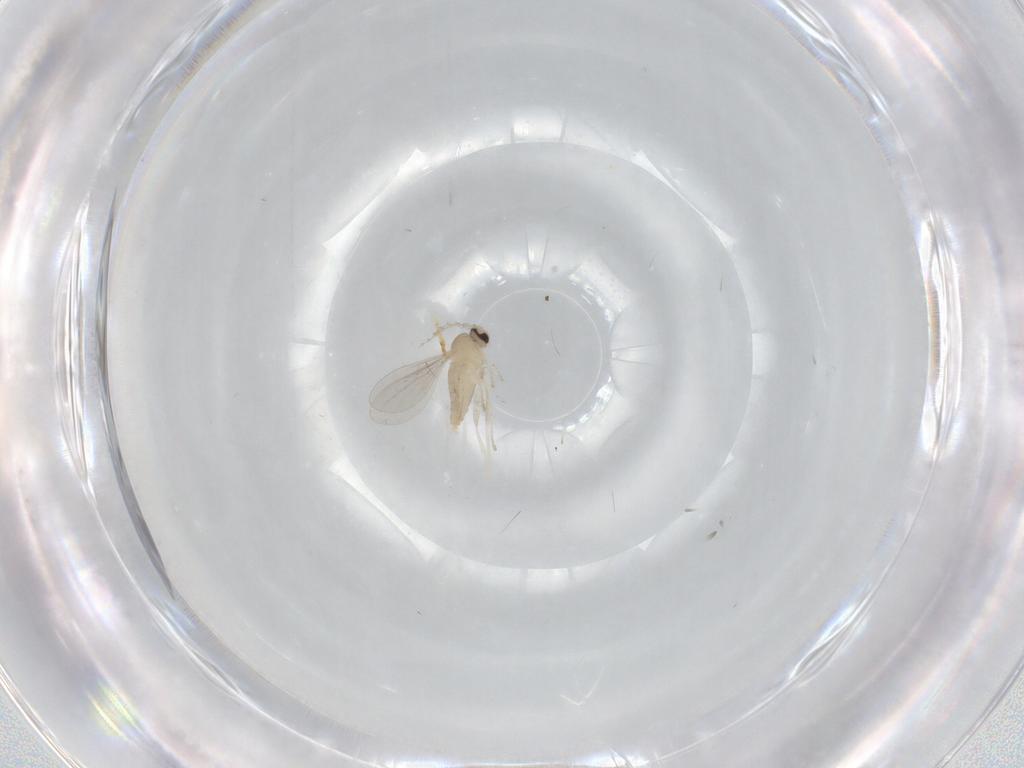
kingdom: Animalia
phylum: Arthropoda
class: Insecta
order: Diptera
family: Cecidomyiidae
